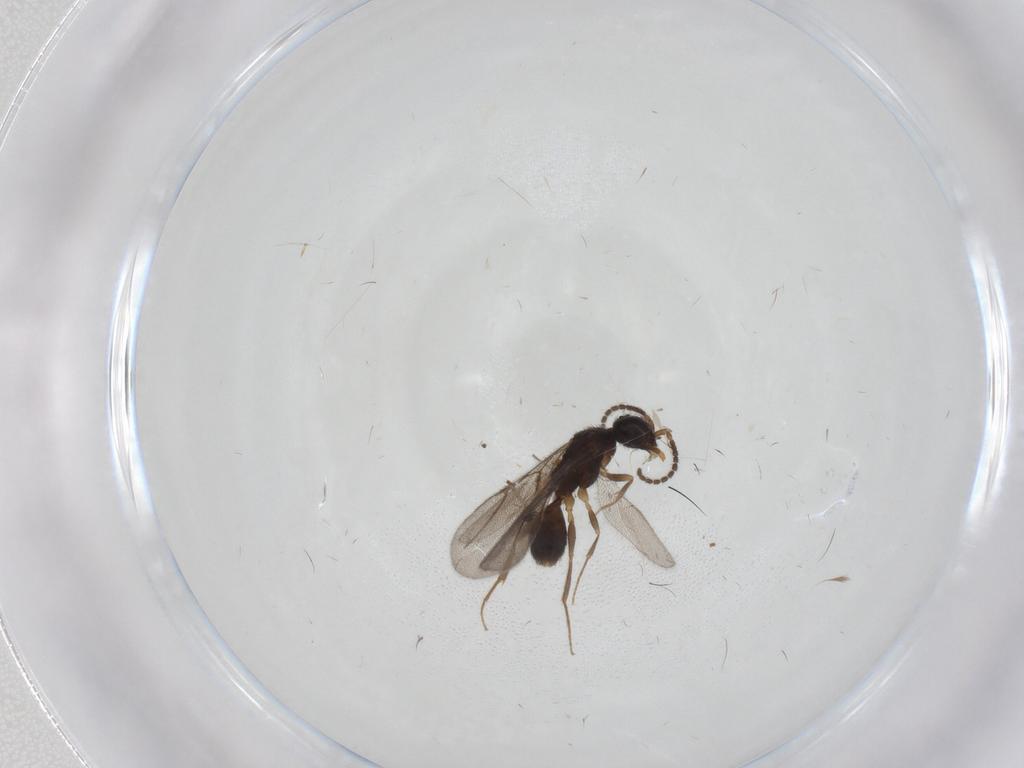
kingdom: Animalia
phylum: Arthropoda
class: Insecta
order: Hymenoptera
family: Bethylidae
